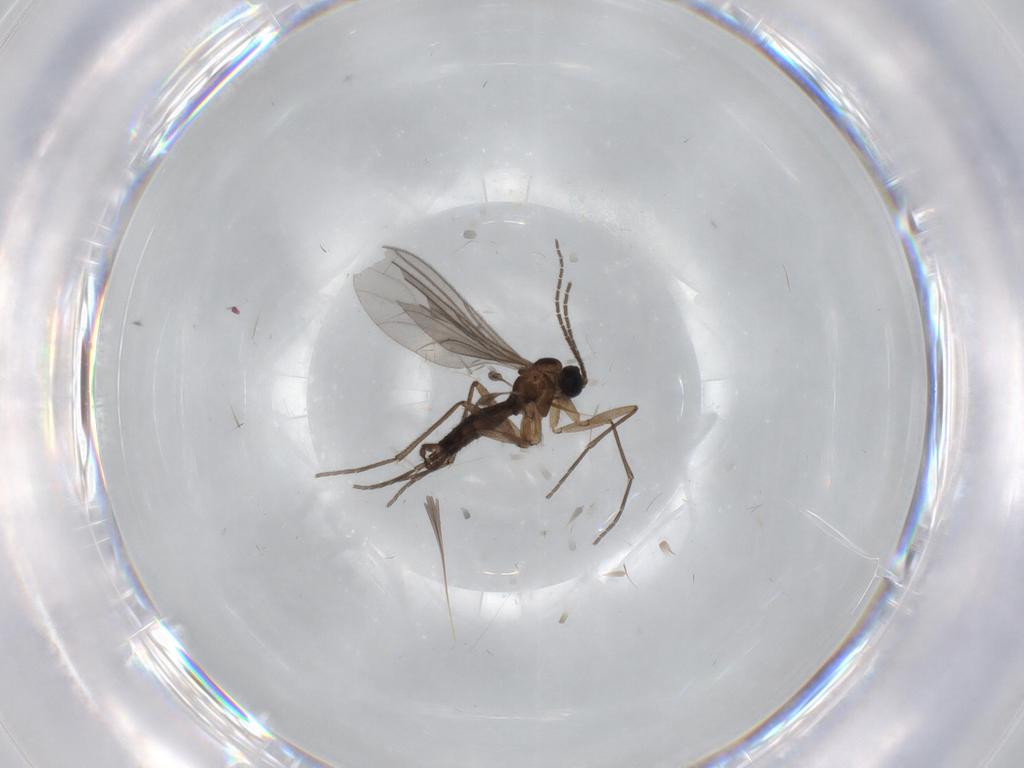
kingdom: Animalia
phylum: Arthropoda
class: Insecta
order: Diptera
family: Sciaridae
